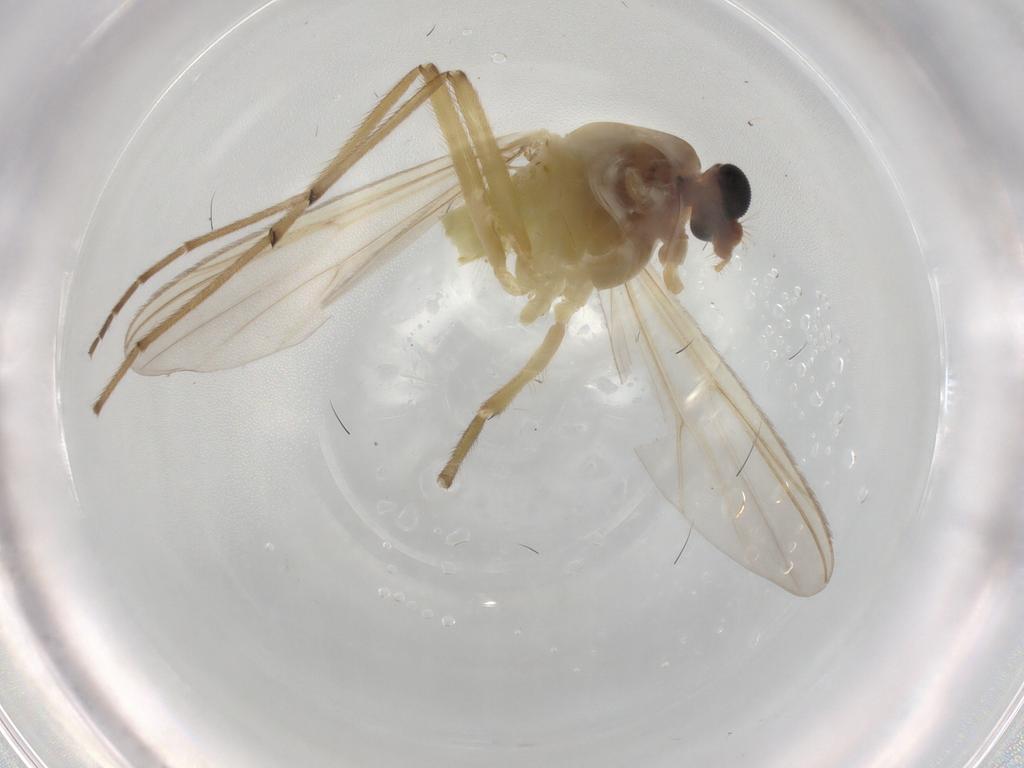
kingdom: Animalia
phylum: Arthropoda
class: Insecta
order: Diptera
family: Chironomidae
